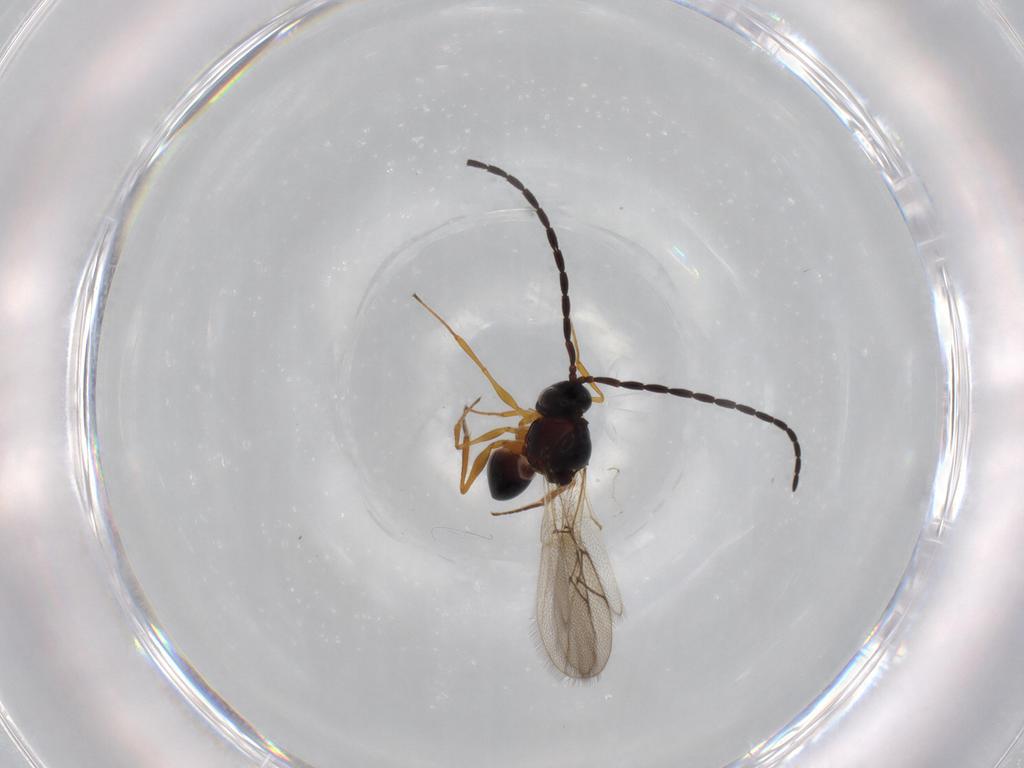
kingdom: Animalia
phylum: Arthropoda
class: Insecta
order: Hymenoptera
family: Figitidae
